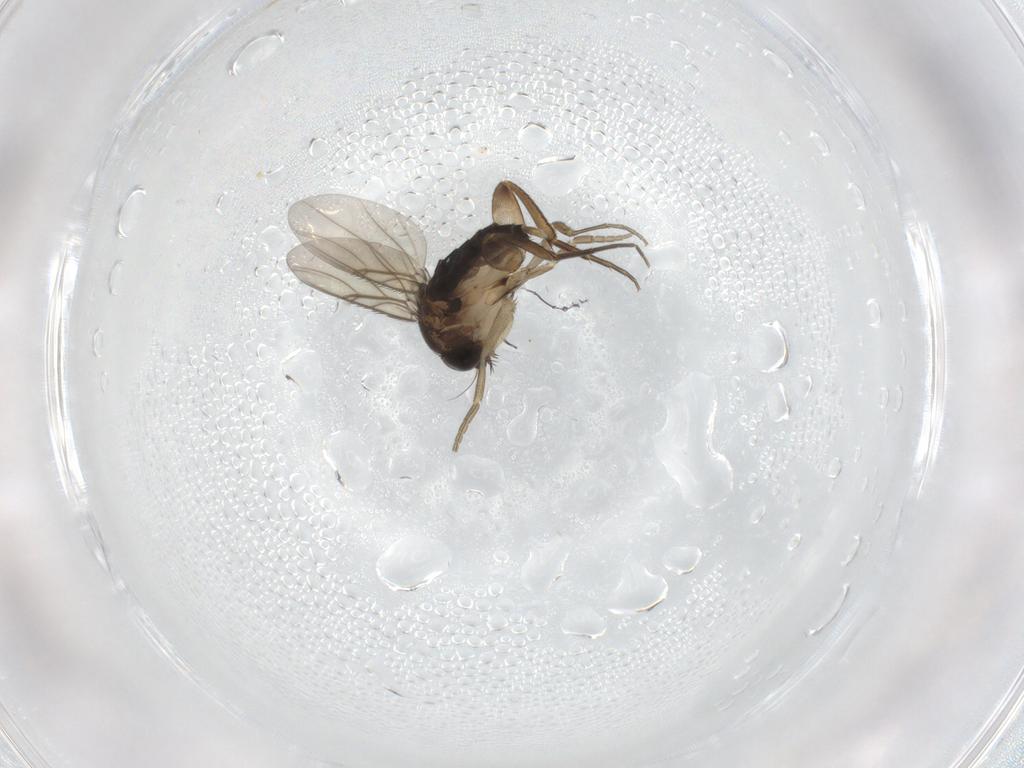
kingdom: Animalia
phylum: Arthropoda
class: Insecta
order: Diptera
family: Phoridae
